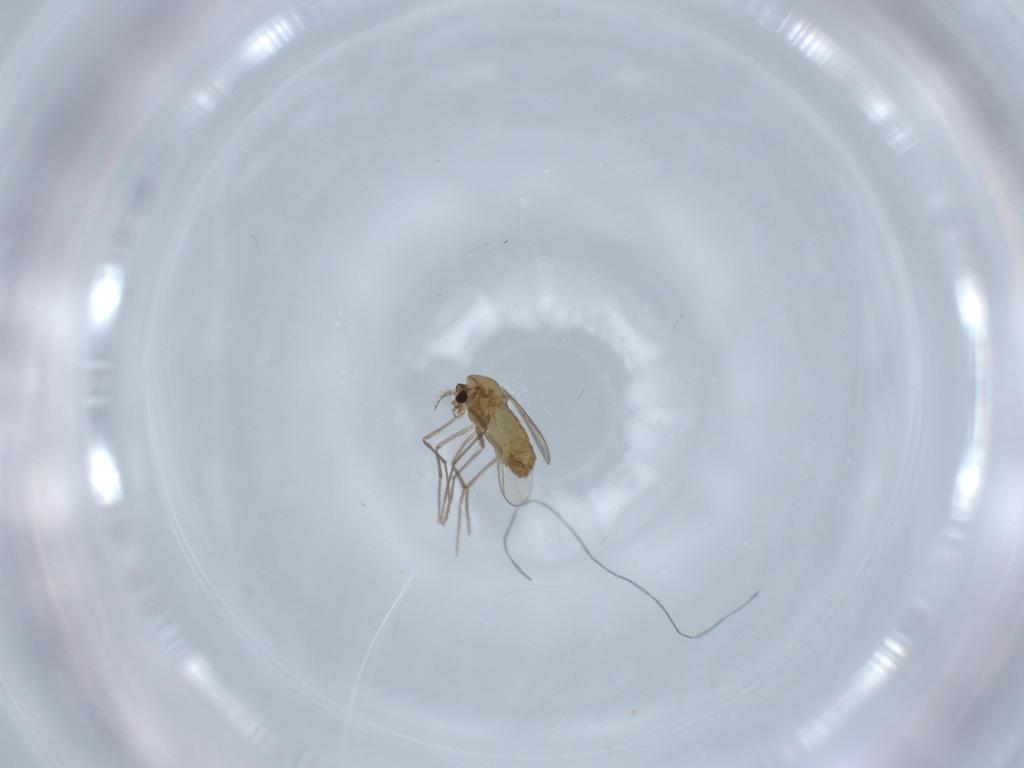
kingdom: Animalia
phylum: Arthropoda
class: Insecta
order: Diptera
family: Chironomidae
